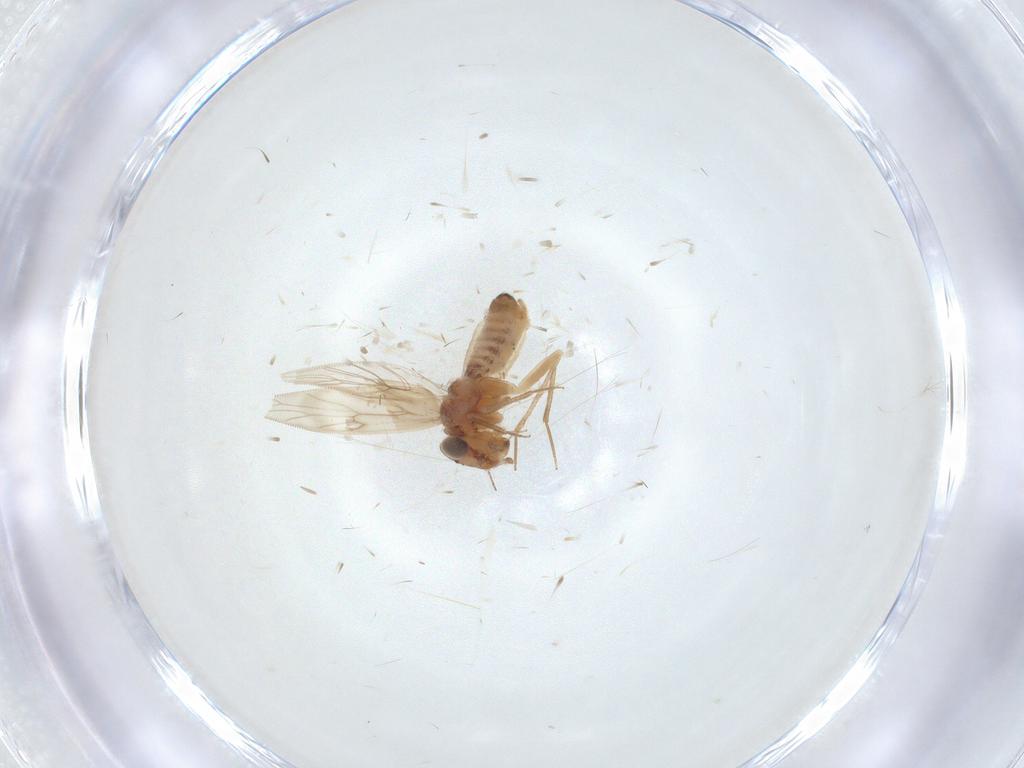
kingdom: Animalia
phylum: Arthropoda
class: Insecta
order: Psocodea
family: Lepidopsocidae
